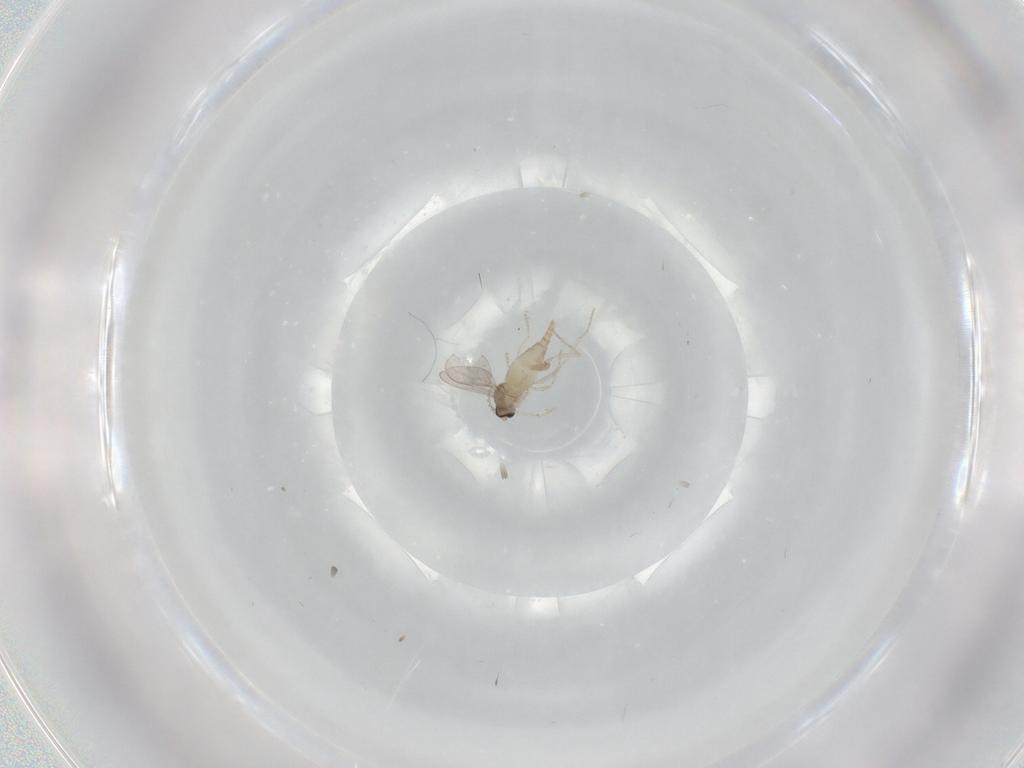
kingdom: Animalia
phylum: Arthropoda
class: Insecta
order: Diptera
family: Cecidomyiidae
